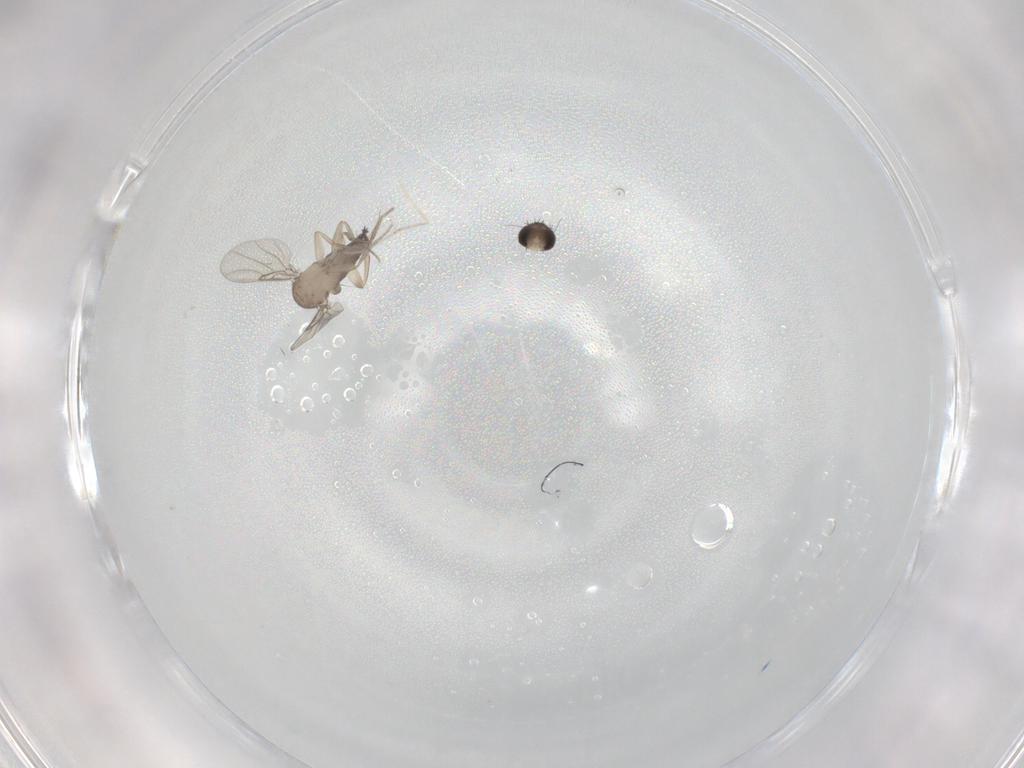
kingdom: Animalia
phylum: Arthropoda
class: Insecta
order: Diptera
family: Phoridae
